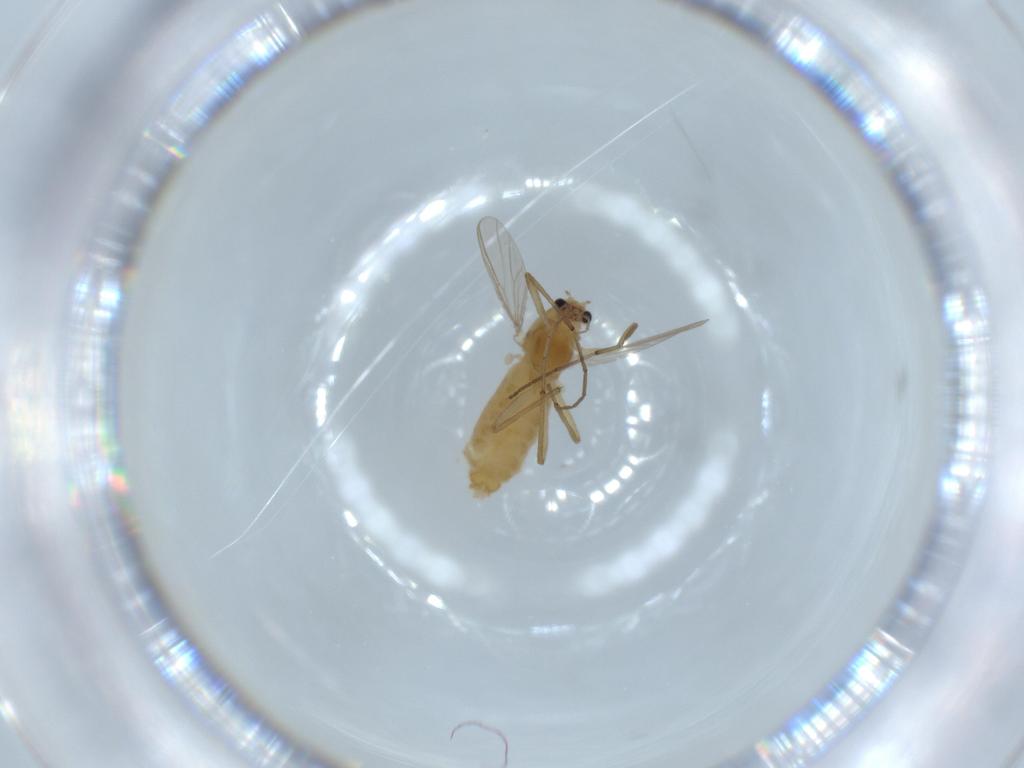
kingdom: Animalia
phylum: Arthropoda
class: Insecta
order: Diptera
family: Chironomidae
